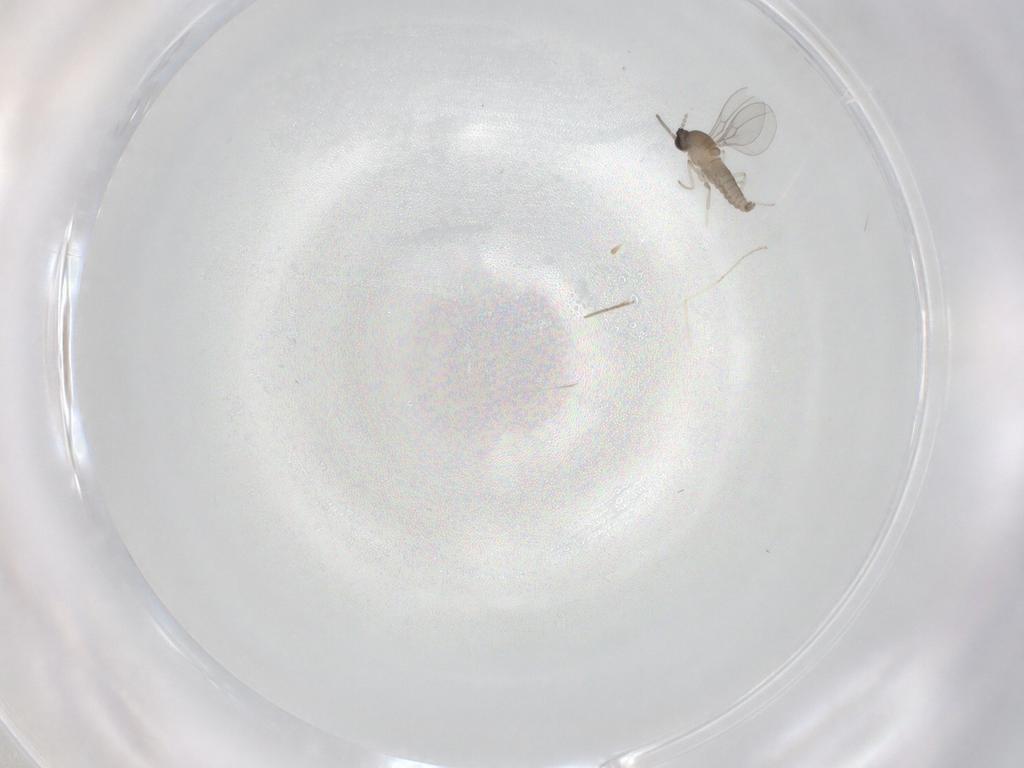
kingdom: Animalia
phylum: Arthropoda
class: Insecta
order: Diptera
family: Cecidomyiidae
